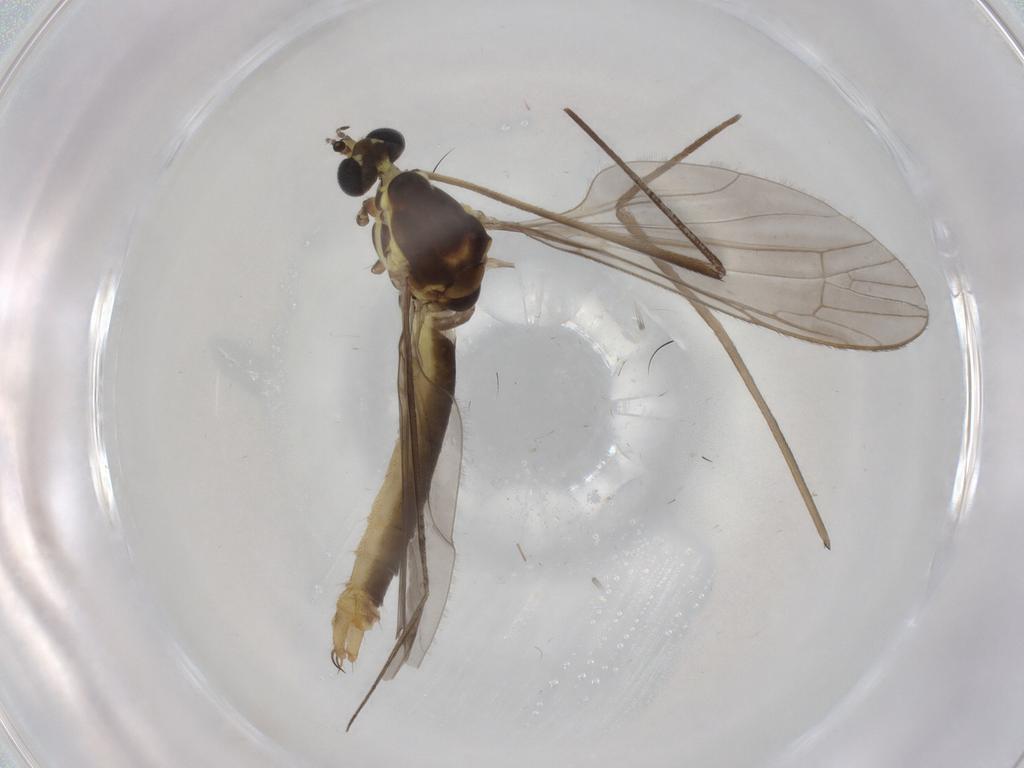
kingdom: Animalia
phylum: Arthropoda
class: Insecta
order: Diptera
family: Limoniidae
